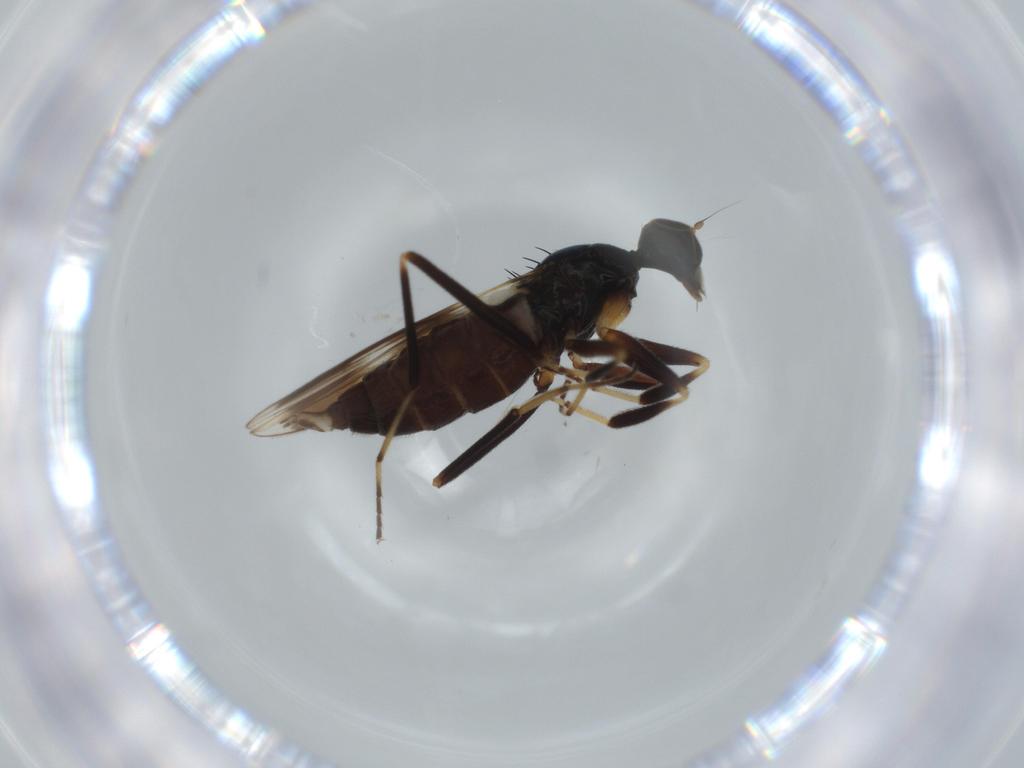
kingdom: Animalia
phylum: Arthropoda
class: Insecta
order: Diptera
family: Hybotidae
